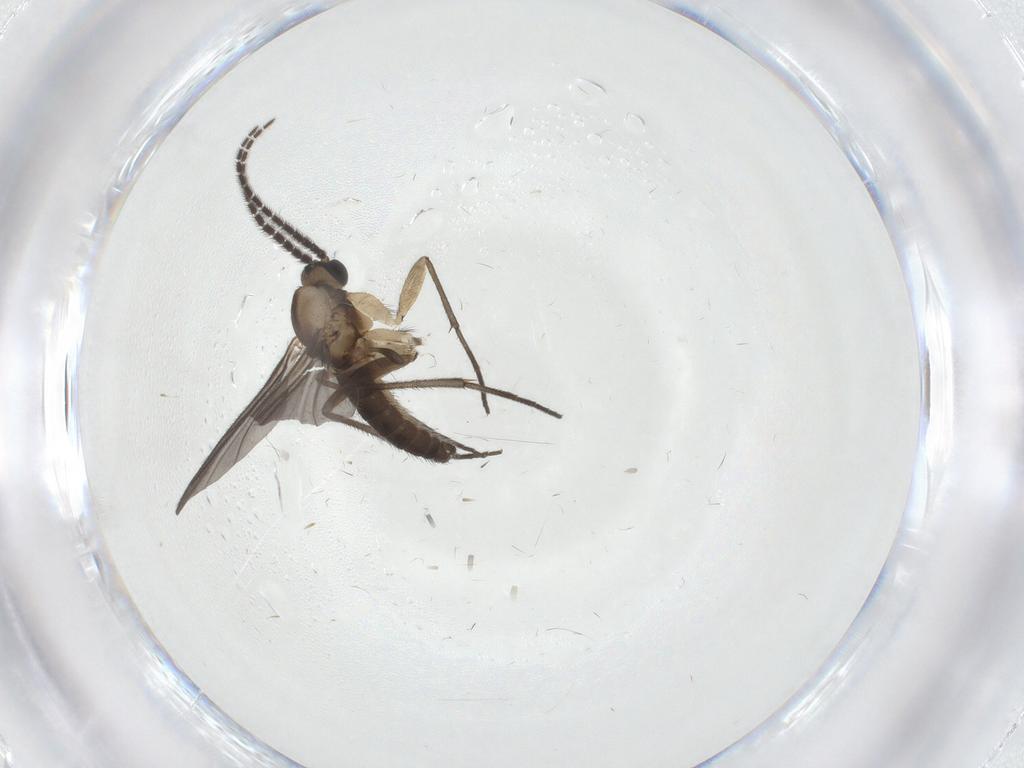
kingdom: Animalia
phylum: Arthropoda
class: Insecta
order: Diptera
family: Sciaridae
